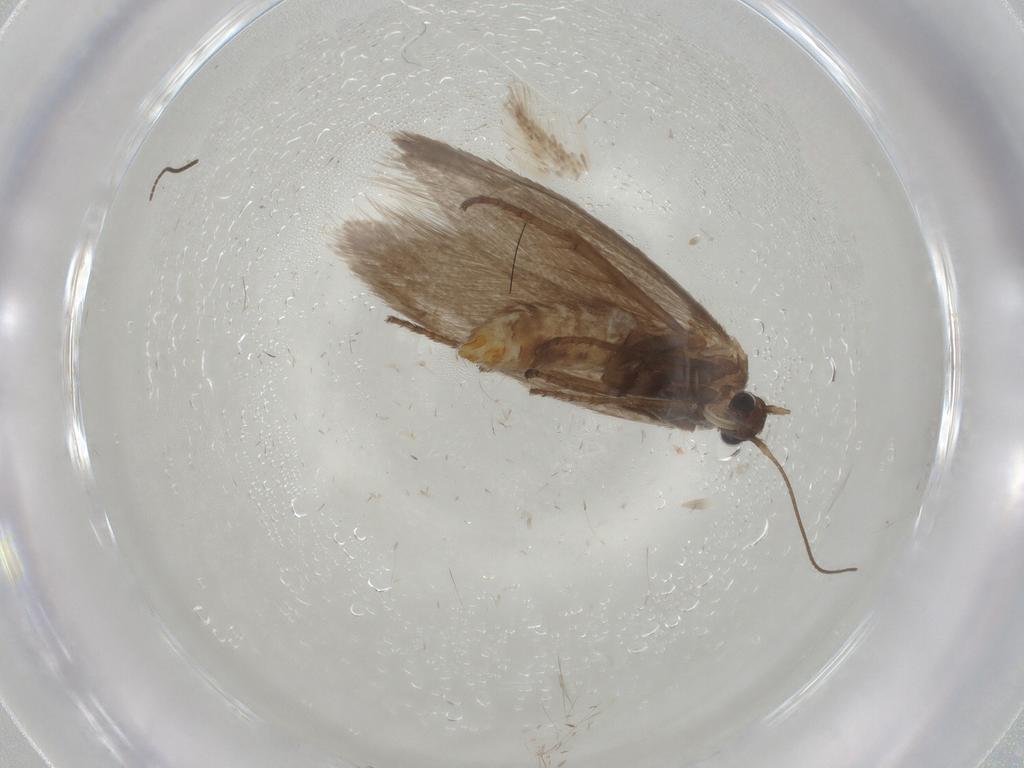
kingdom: Animalia
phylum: Arthropoda
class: Insecta
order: Lepidoptera
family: Limacodidae
